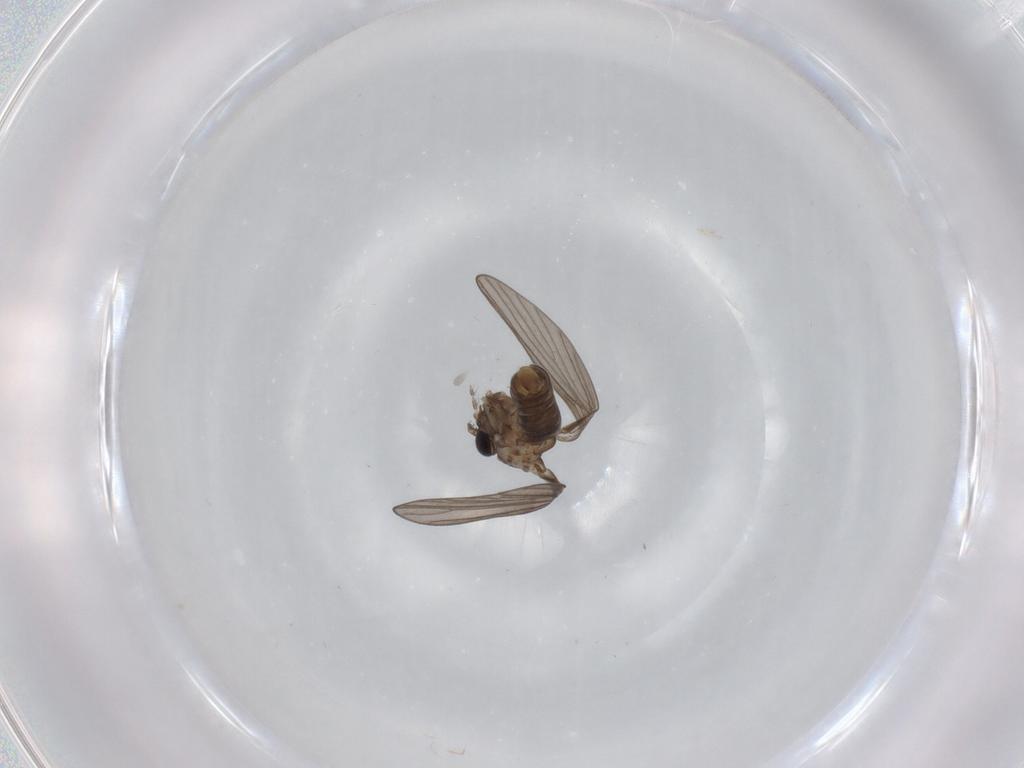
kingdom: Animalia
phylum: Arthropoda
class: Insecta
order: Diptera
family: Psychodidae
